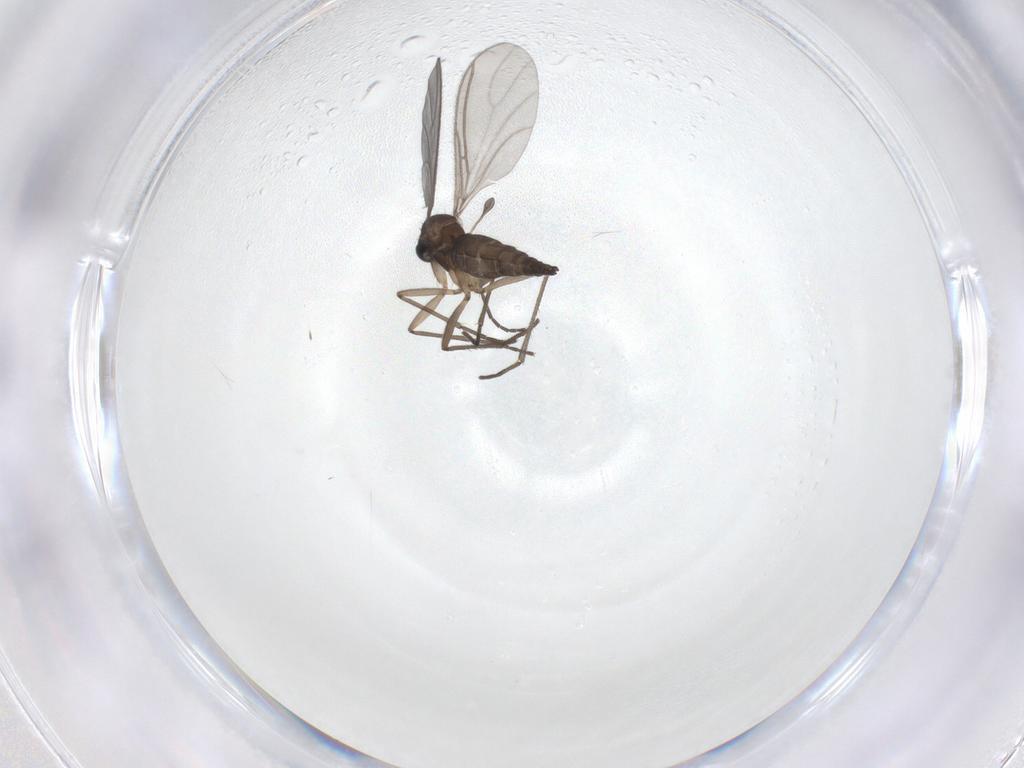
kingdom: Animalia
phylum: Arthropoda
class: Insecta
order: Diptera
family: Sciaridae
